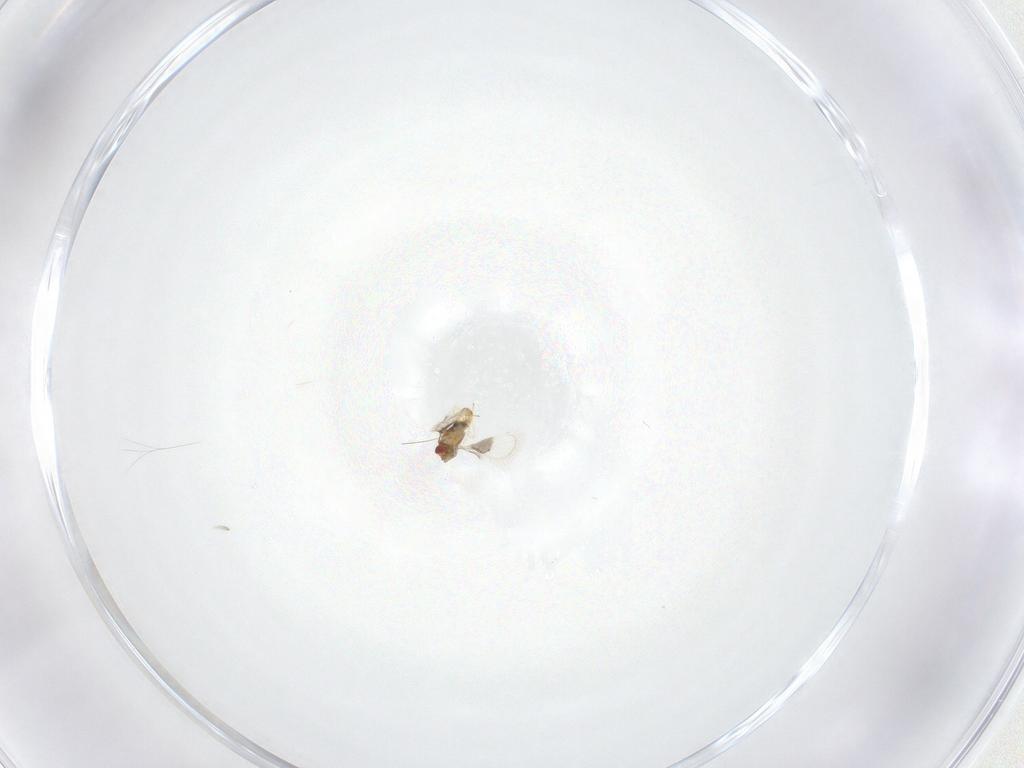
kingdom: Animalia
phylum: Arthropoda
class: Insecta
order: Hymenoptera
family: Trichogrammatidae
